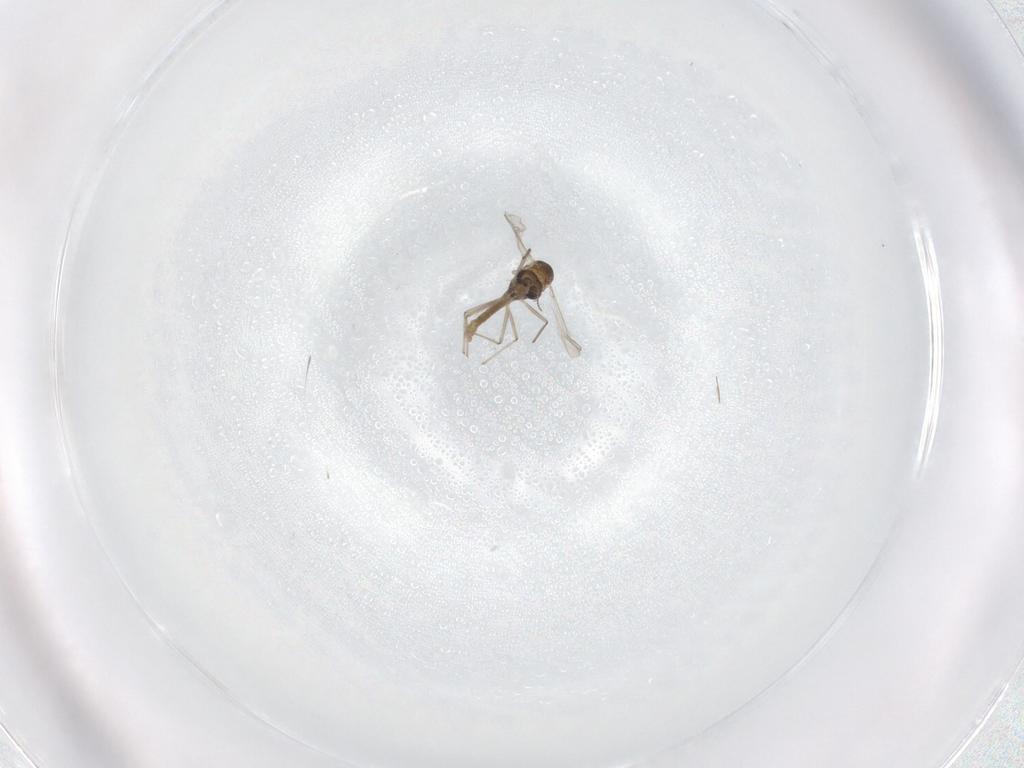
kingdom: Animalia
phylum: Arthropoda
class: Insecta
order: Diptera
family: Chironomidae
